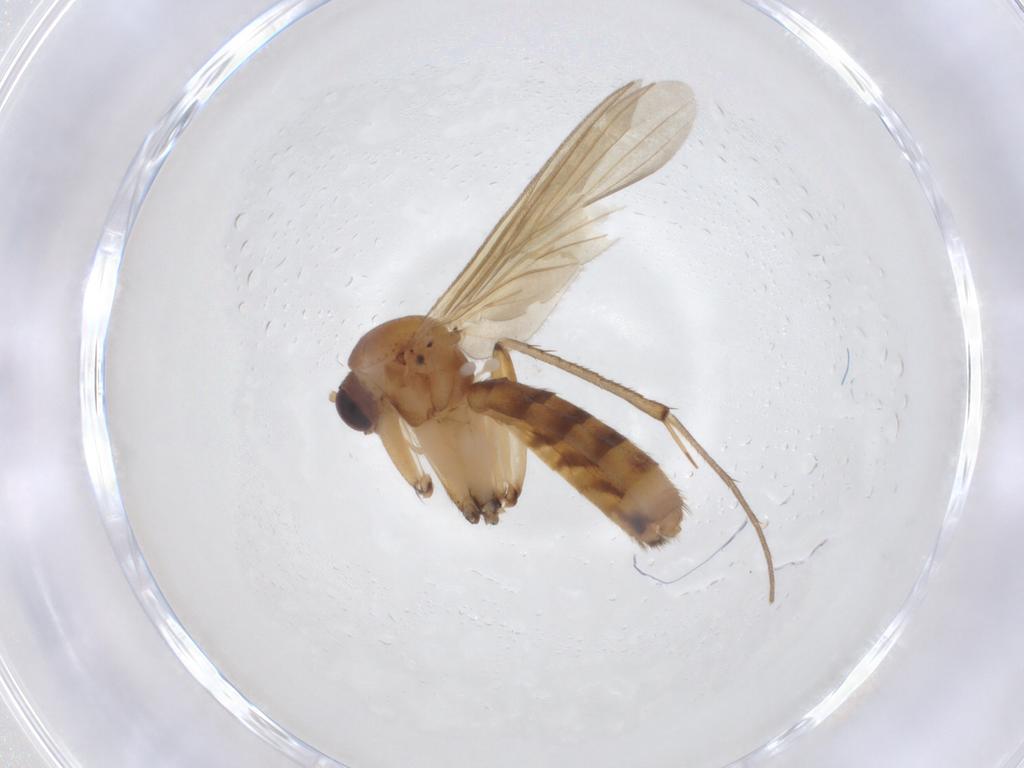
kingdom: Animalia
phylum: Arthropoda
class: Insecta
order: Diptera
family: Mycetophilidae
